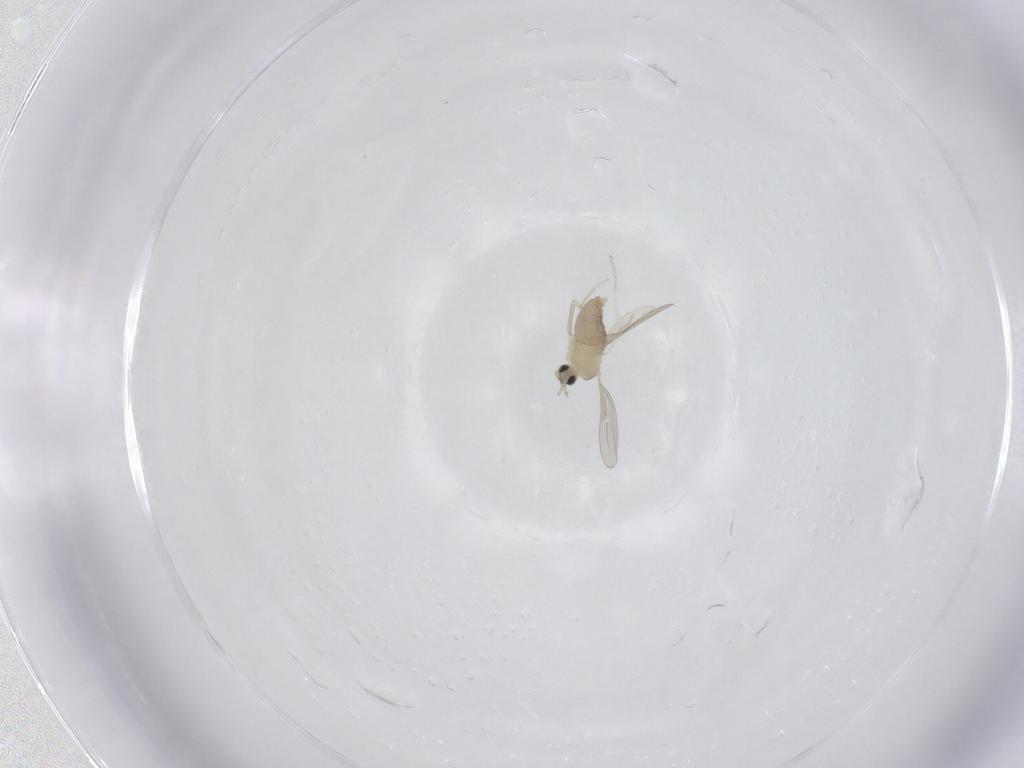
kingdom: Animalia
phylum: Arthropoda
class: Insecta
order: Diptera
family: Cecidomyiidae
